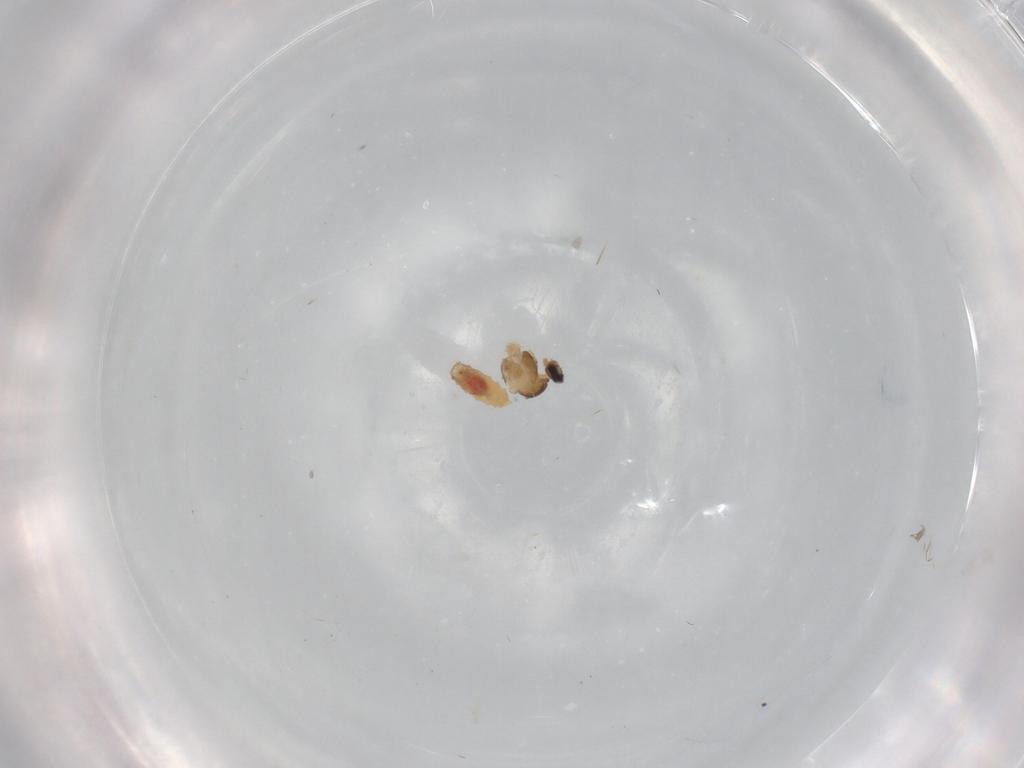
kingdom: Animalia
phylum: Arthropoda
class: Insecta
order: Diptera
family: Cecidomyiidae
